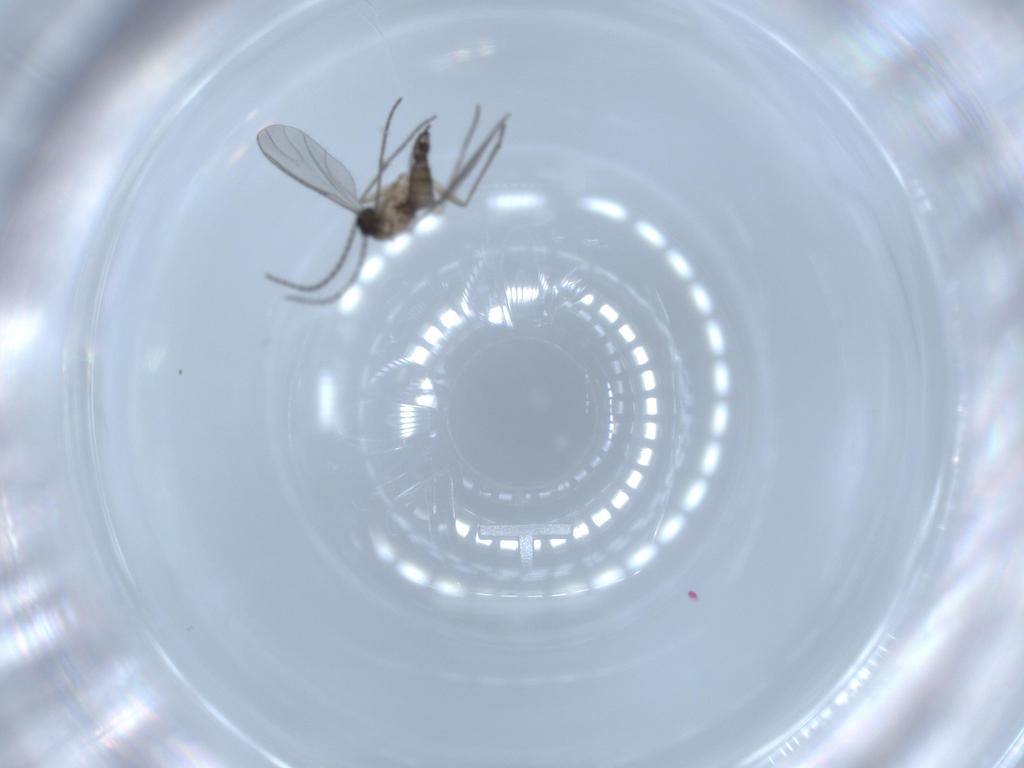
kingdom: Animalia
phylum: Arthropoda
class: Insecta
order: Diptera
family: Sciaridae
